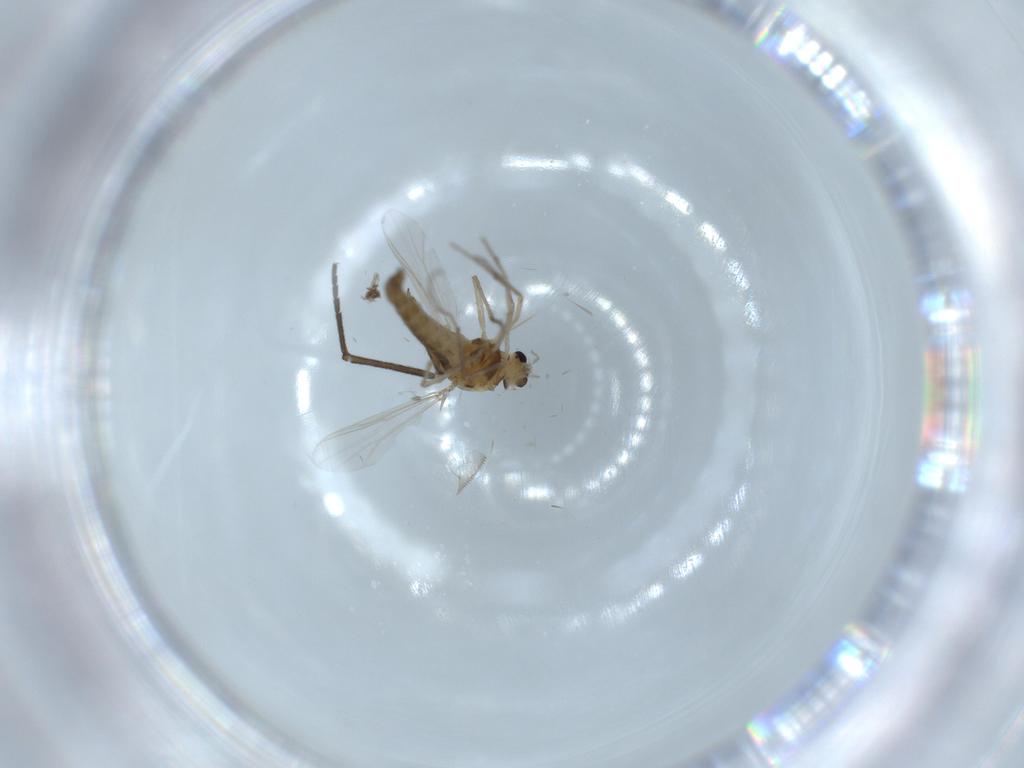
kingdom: Animalia
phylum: Arthropoda
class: Insecta
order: Diptera
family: Chironomidae
